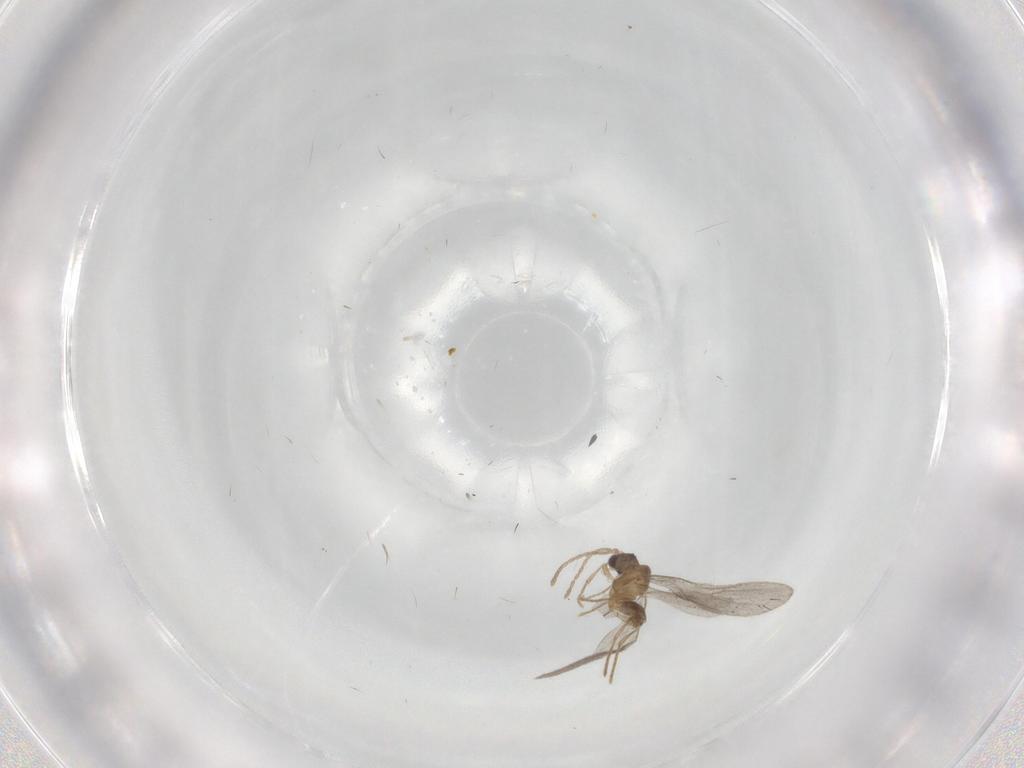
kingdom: Animalia
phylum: Arthropoda
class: Insecta
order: Hymenoptera
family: Formicidae
